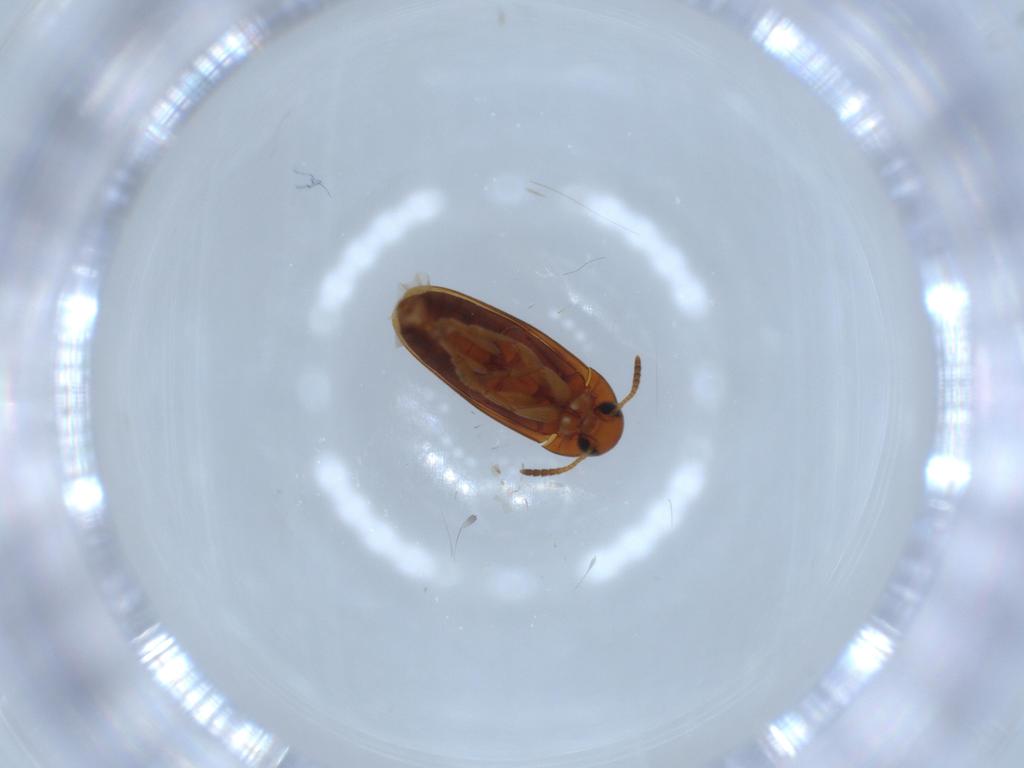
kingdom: Animalia
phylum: Arthropoda
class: Insecta
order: Coleoptera
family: Scraptiidae
